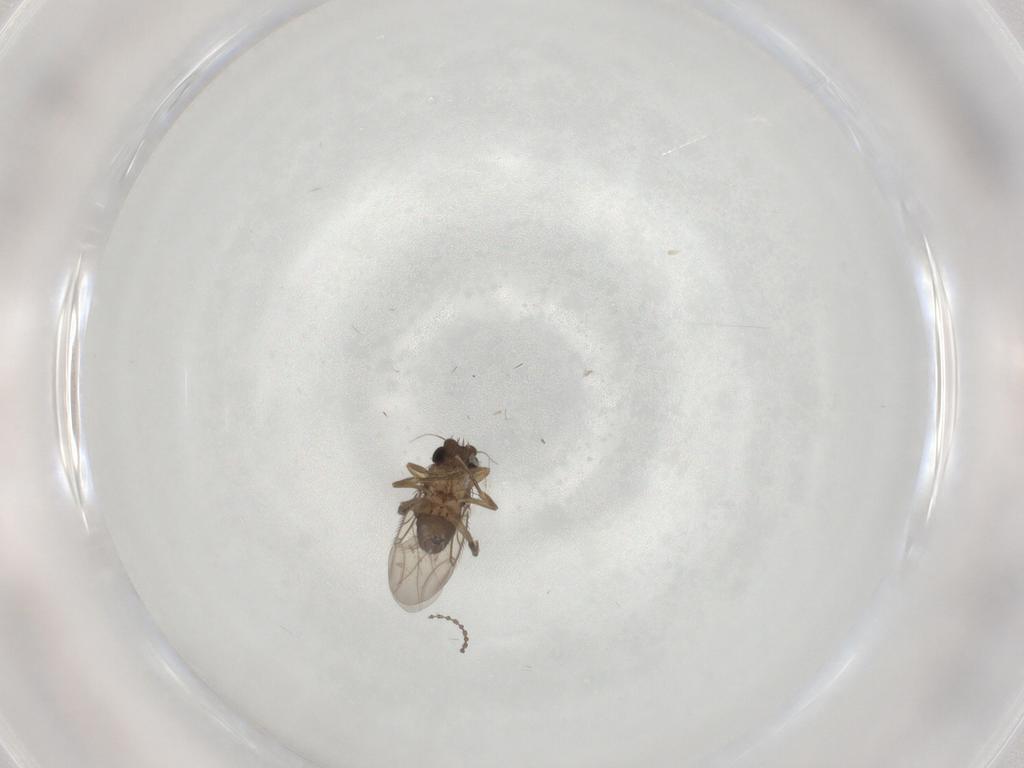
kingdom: Animalia
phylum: Arthropoda
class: Insecta
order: Diptera
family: Phoridae
